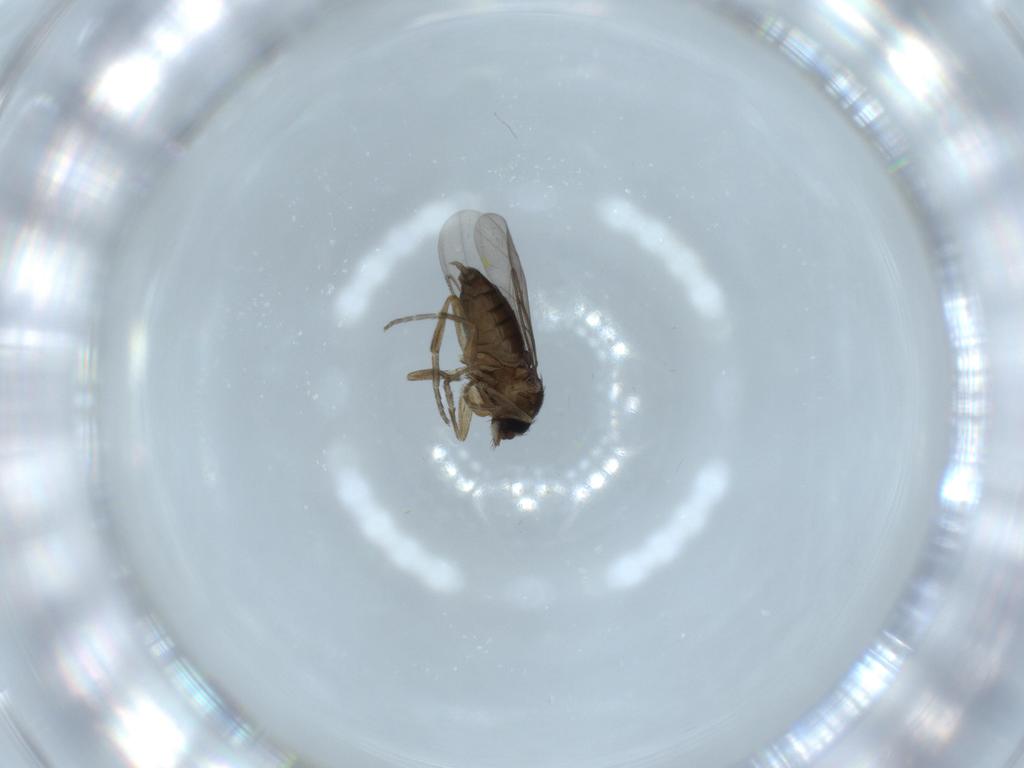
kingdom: Animalia
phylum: Arthropoda
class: Insecta
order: Diptera
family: Phoridae
